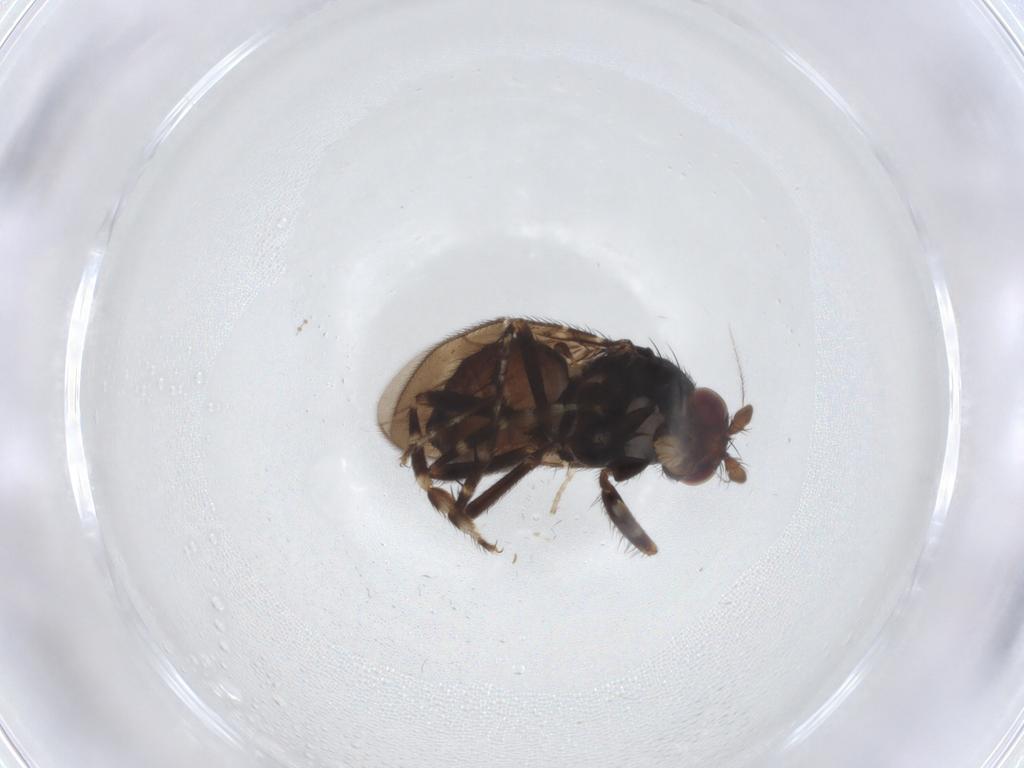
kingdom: Animalia
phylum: Arthropoda
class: Insecta
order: Diptera
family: Sphaeroceridae
